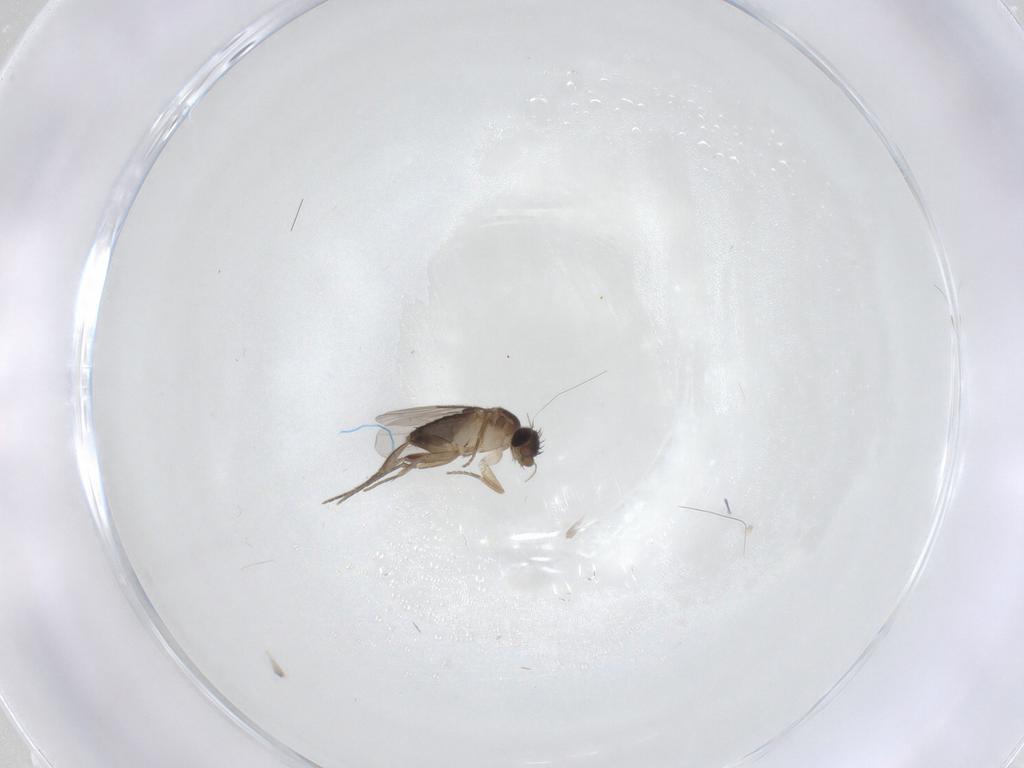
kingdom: Animalia
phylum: Arthropoda
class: Insecta
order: Diptera
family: Phoridae
